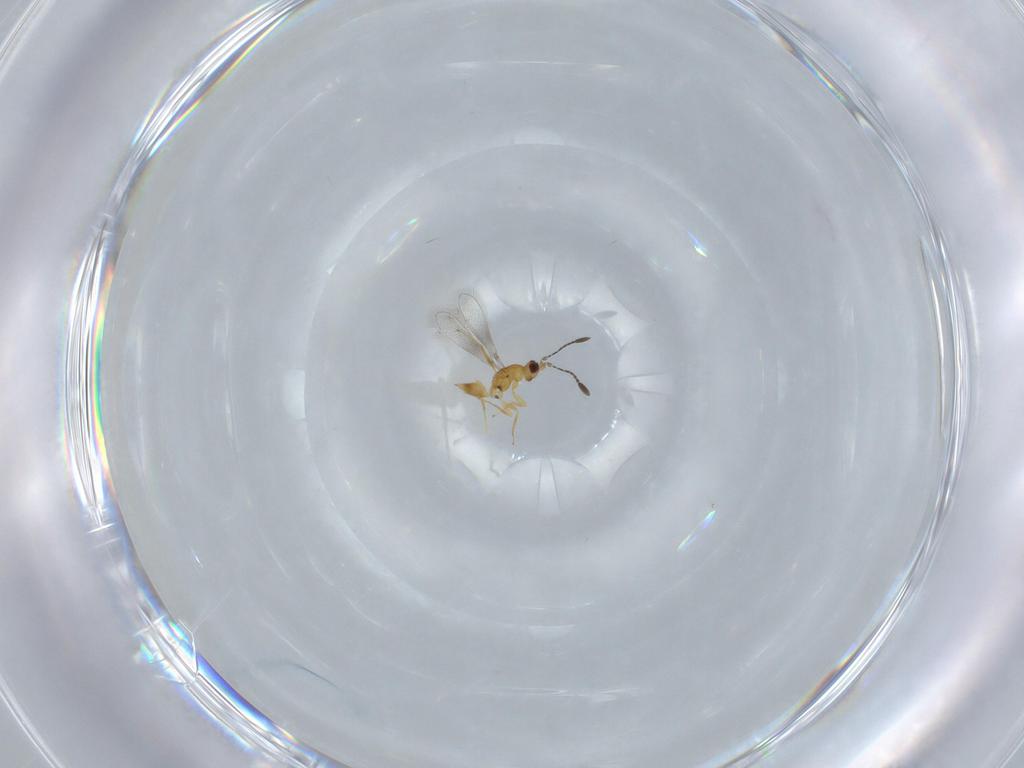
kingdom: Animalia
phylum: Arthropoda
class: Insecta
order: Hymenoptera
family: Mymaridae
